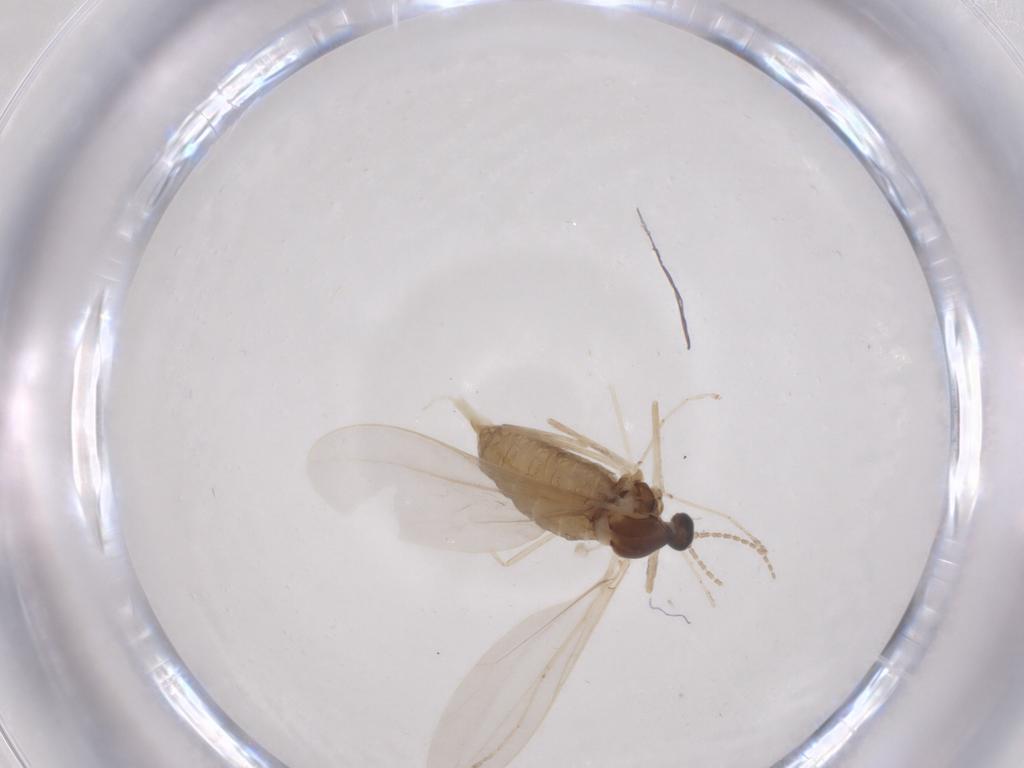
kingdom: Animalia
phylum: Arthropoda
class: Insecta
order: Diptera
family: Cecidomyiidae
